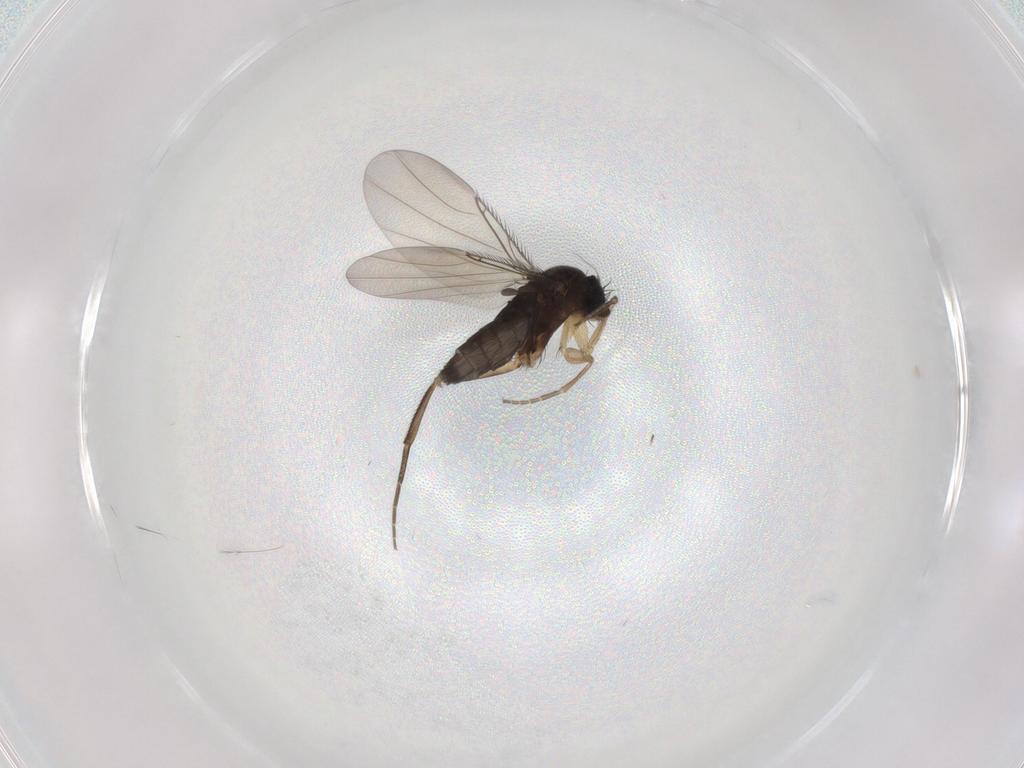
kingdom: Animalia
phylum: Arthropoda
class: Insecta
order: Diptera
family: Phoridae
